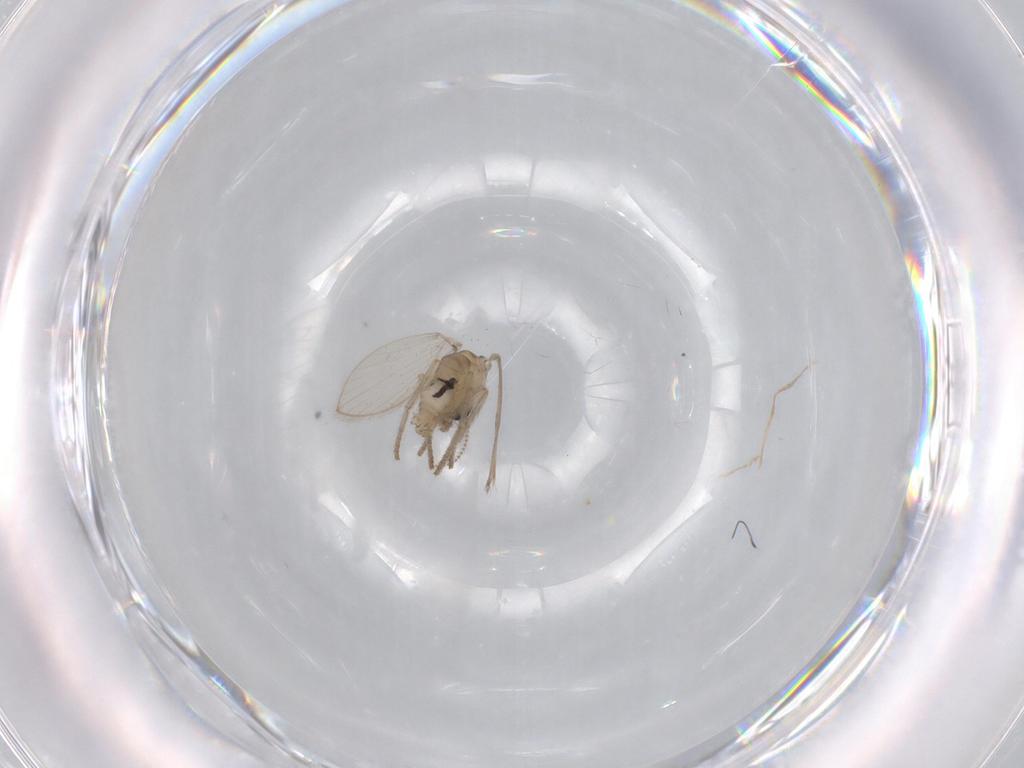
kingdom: Animalia
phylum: Arthropoda
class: Insecta
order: Diptera
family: Psychodidae
